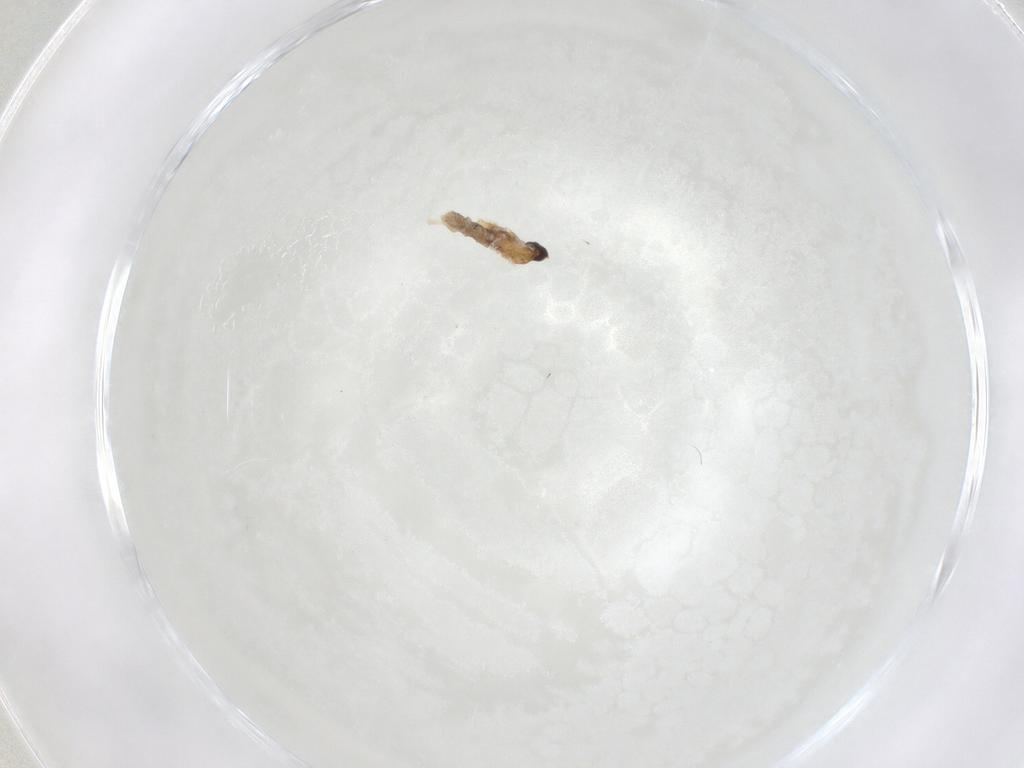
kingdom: Animalia
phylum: Arthropoda
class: Insecta
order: Diptera
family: Cecidomyiidae
